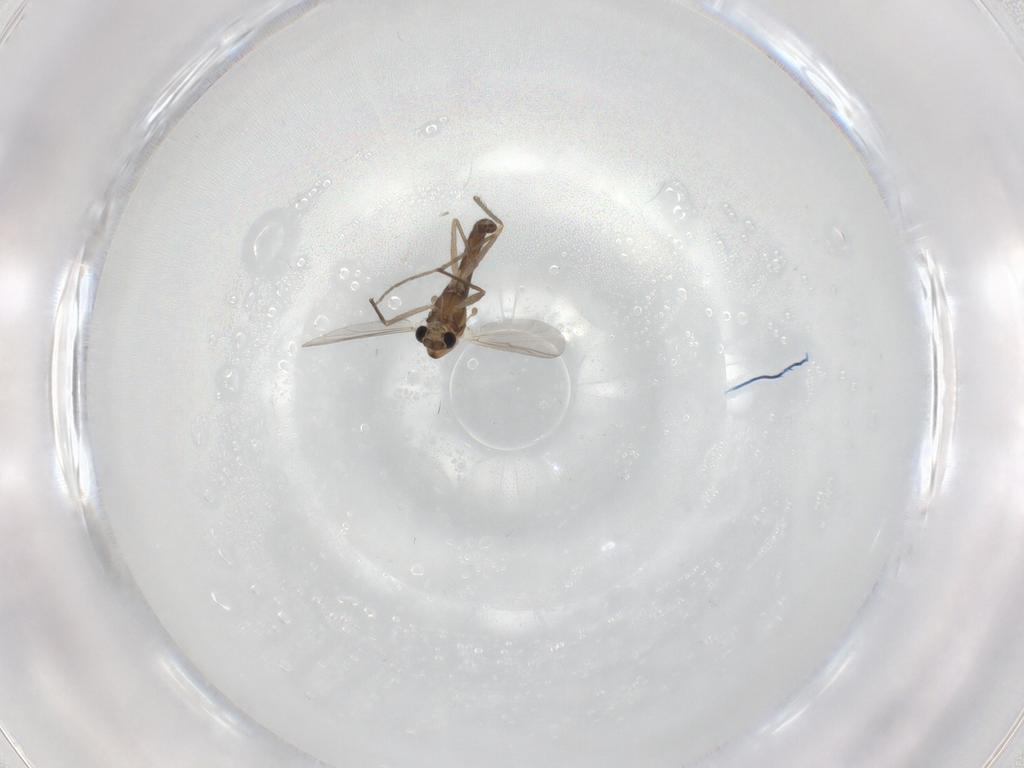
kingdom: Animalia
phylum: Arthropoda
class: Insecta
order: Diptera
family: Chironomidae
